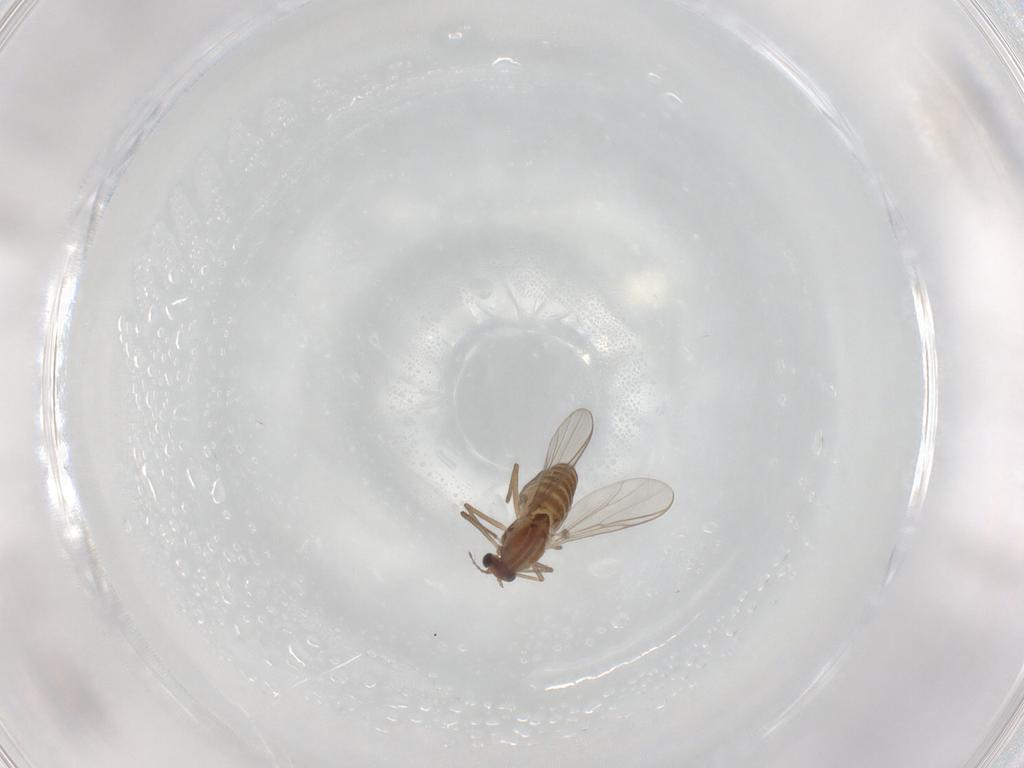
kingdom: Animalia
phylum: Arthropoda
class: Insecta
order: Diptera
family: Chironomidae
